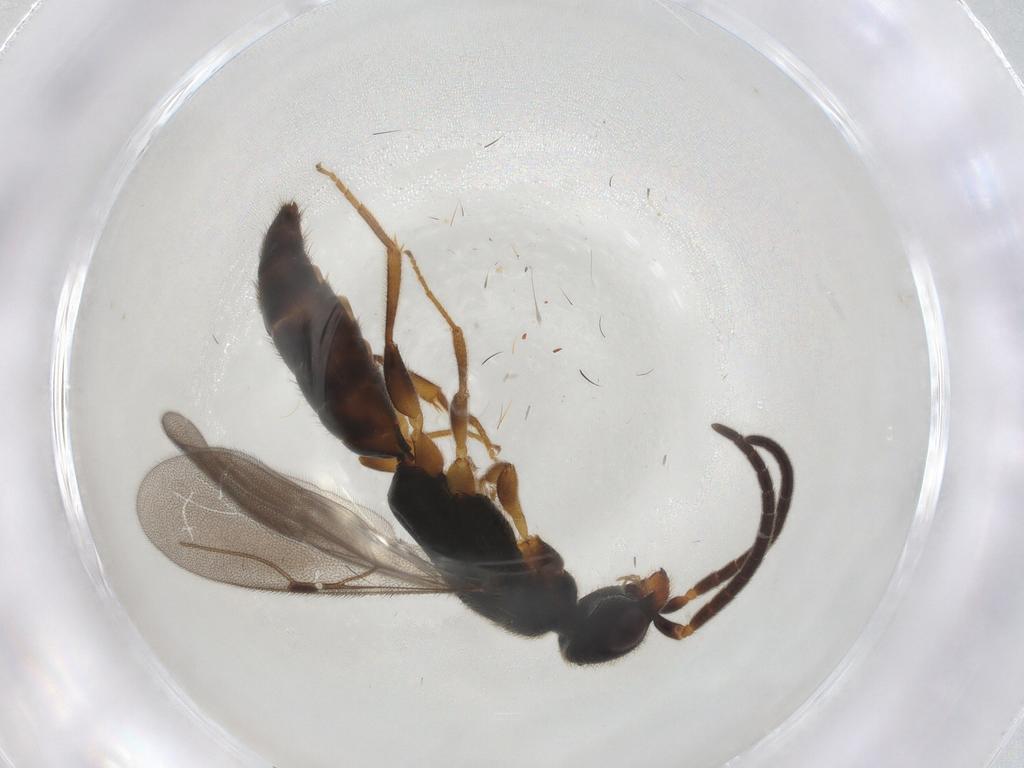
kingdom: Animalia
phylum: Arthropoda
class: Insecta
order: Hymenoptera
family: Bethylidae
